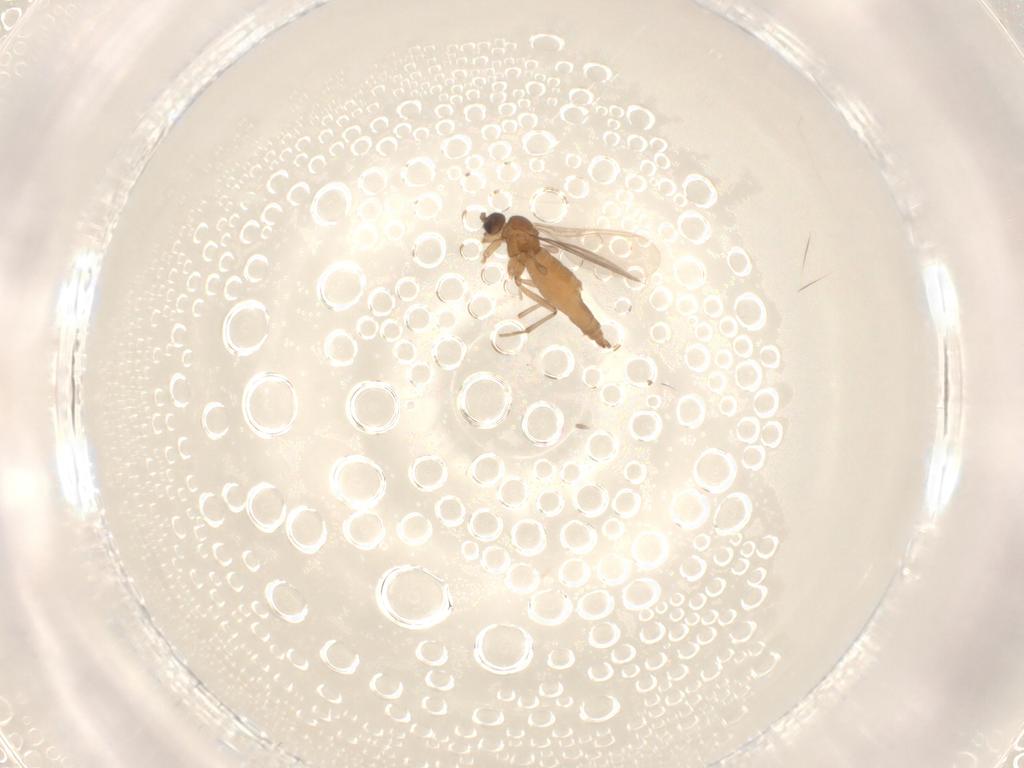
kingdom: Animalia
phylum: Arthropoda
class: Insecta
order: Diptera
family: Sciaridae
